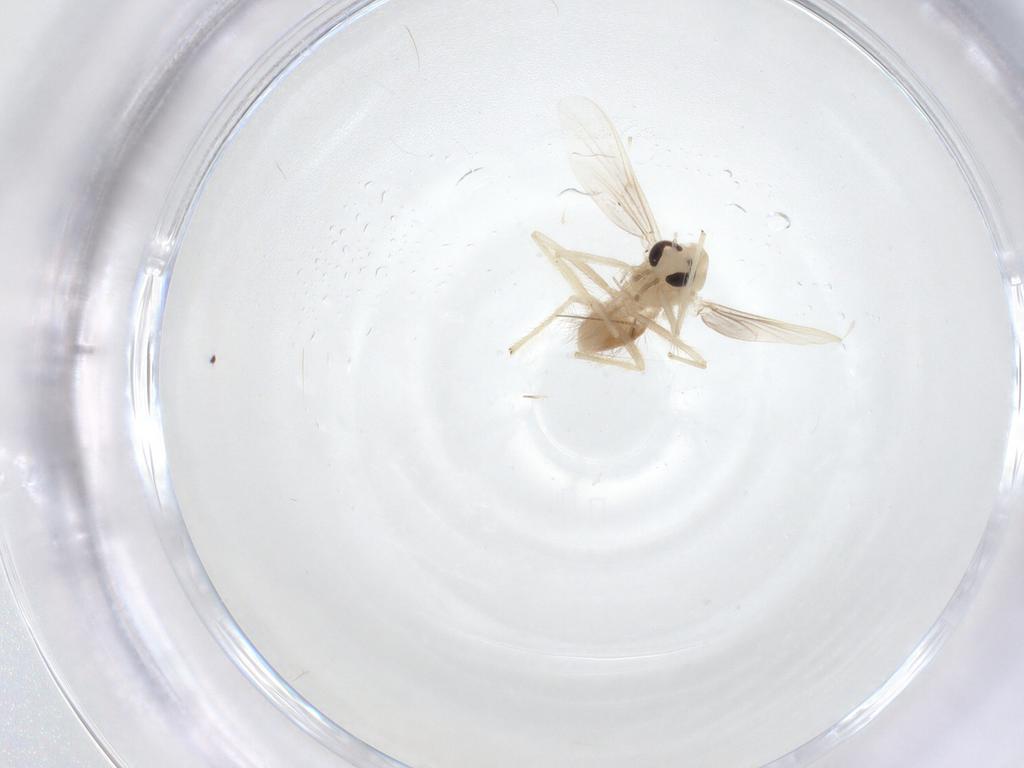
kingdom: Animalia
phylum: Arthropoda
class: Insecta
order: Diptera
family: Chironomidae
